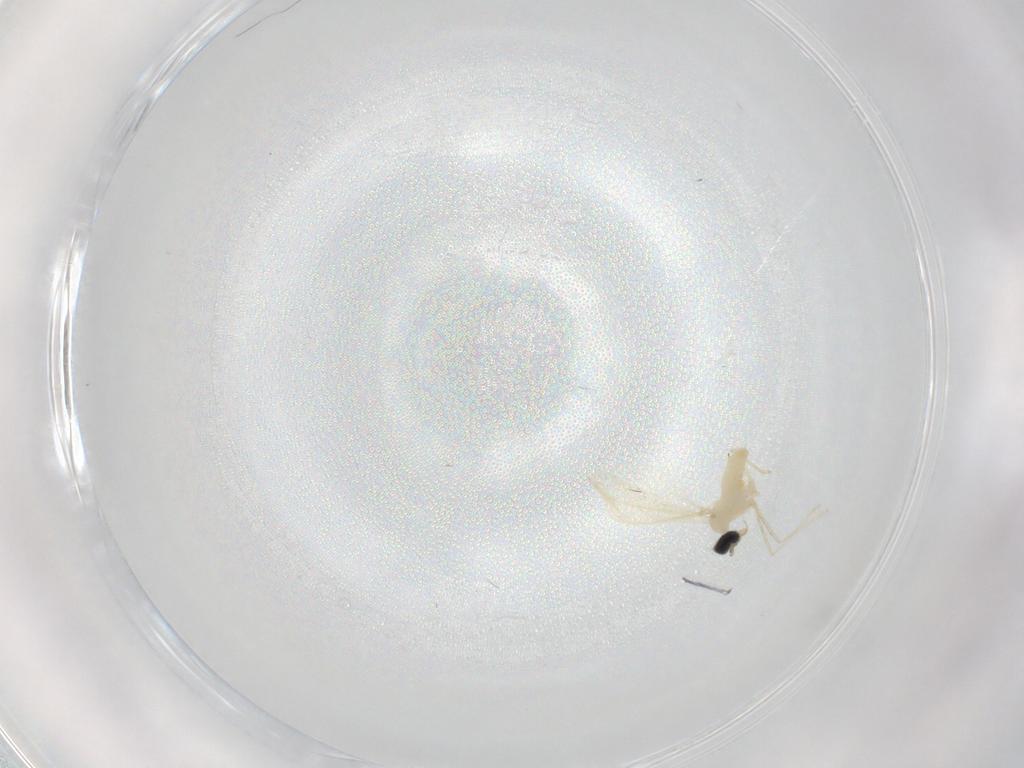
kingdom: Animalia
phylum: Arthropoda
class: Insecta
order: Diptera
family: Cecidomyiidae
